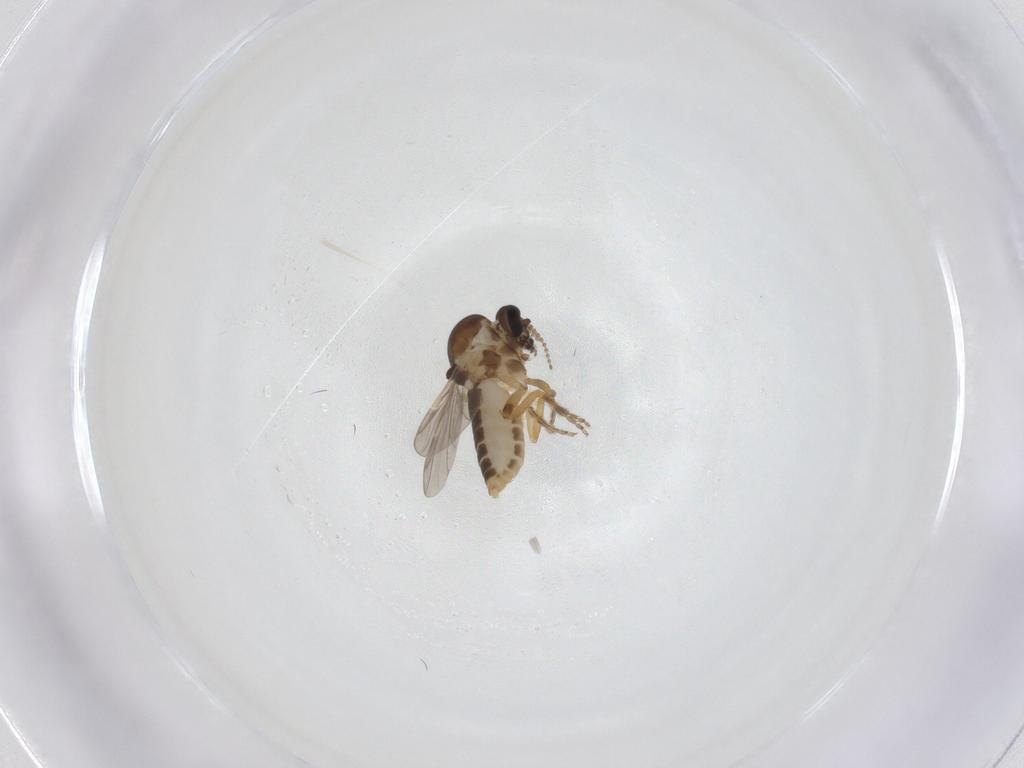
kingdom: Animalia
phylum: Arthropoda
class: Insecta
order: Diptera
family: Ceratopogonidae
